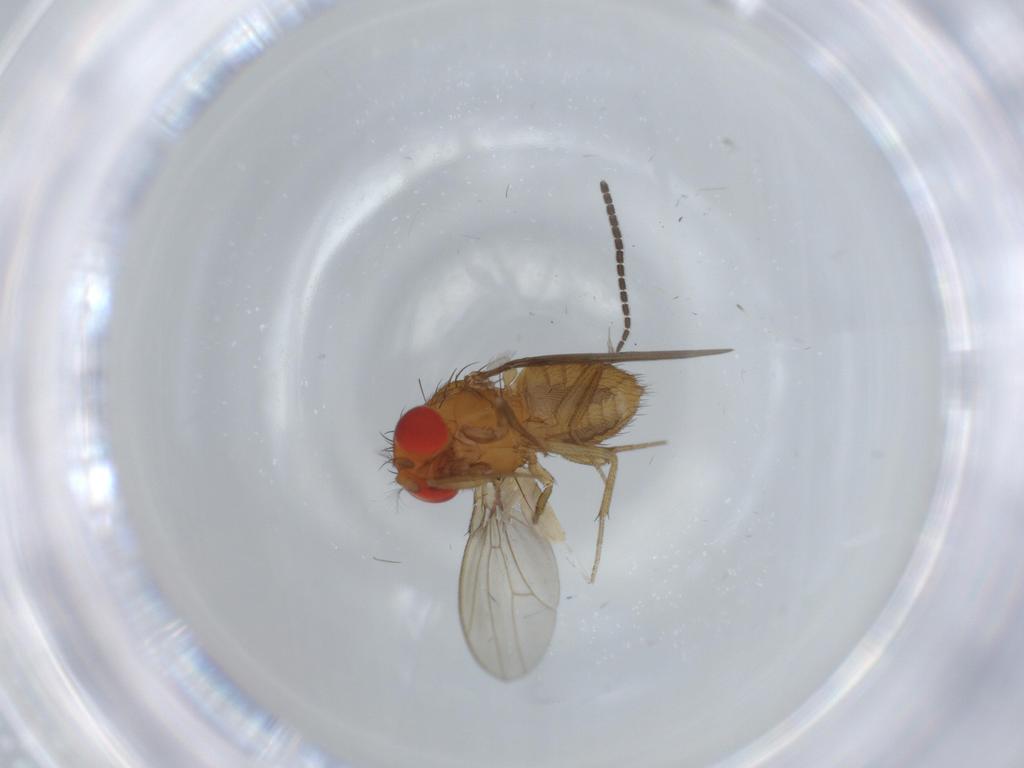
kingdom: Animalia
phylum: Arthropoda
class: Insecta
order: Diptera
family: Drosophilidae
